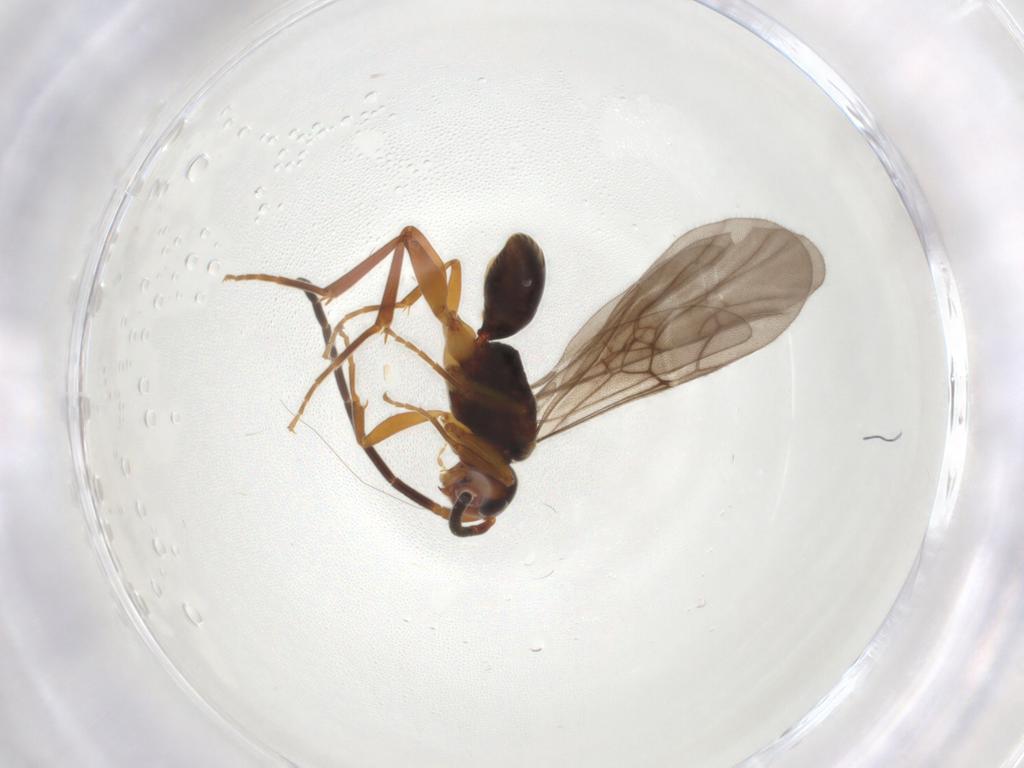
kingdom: Animalia
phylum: Arthropoda
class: Insecta
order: Hymenoptera
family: Embolemidae
